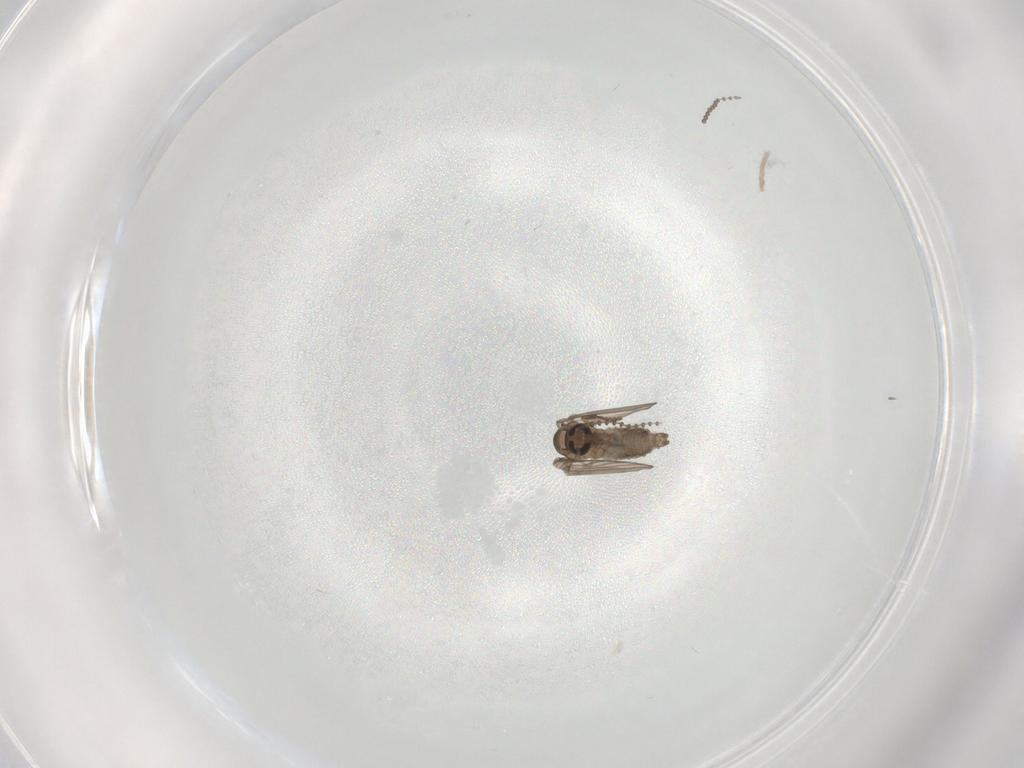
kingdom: Animalia
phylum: Arthropoda
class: Insecta
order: Diptera
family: Psychodidae
